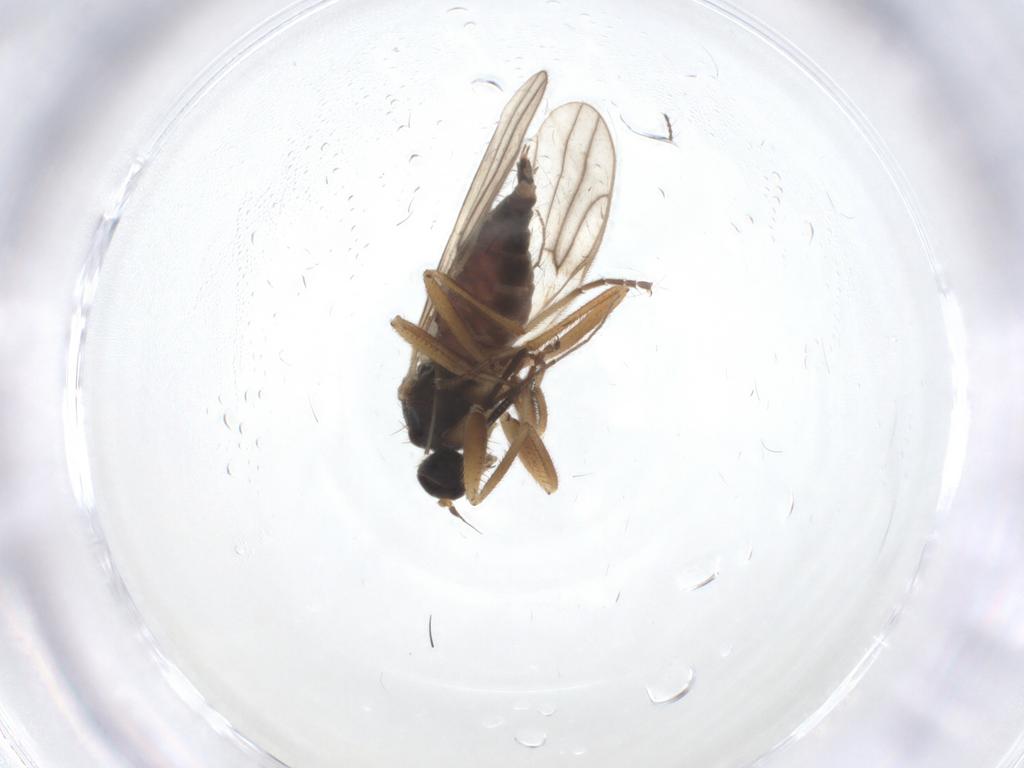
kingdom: Animalia
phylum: Arthropoda
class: Insecta
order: Diptera
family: Hybotidae
